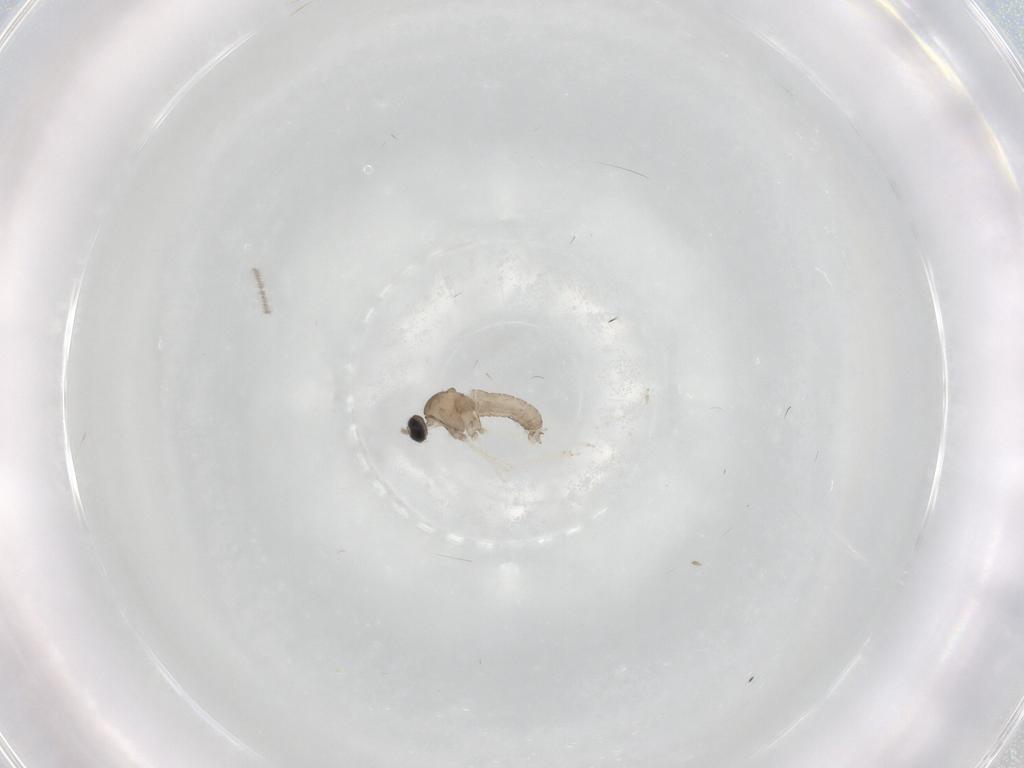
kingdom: Animalia
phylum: Arthropoda
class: Insecta
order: Diptera
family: Cecidomyiidae
